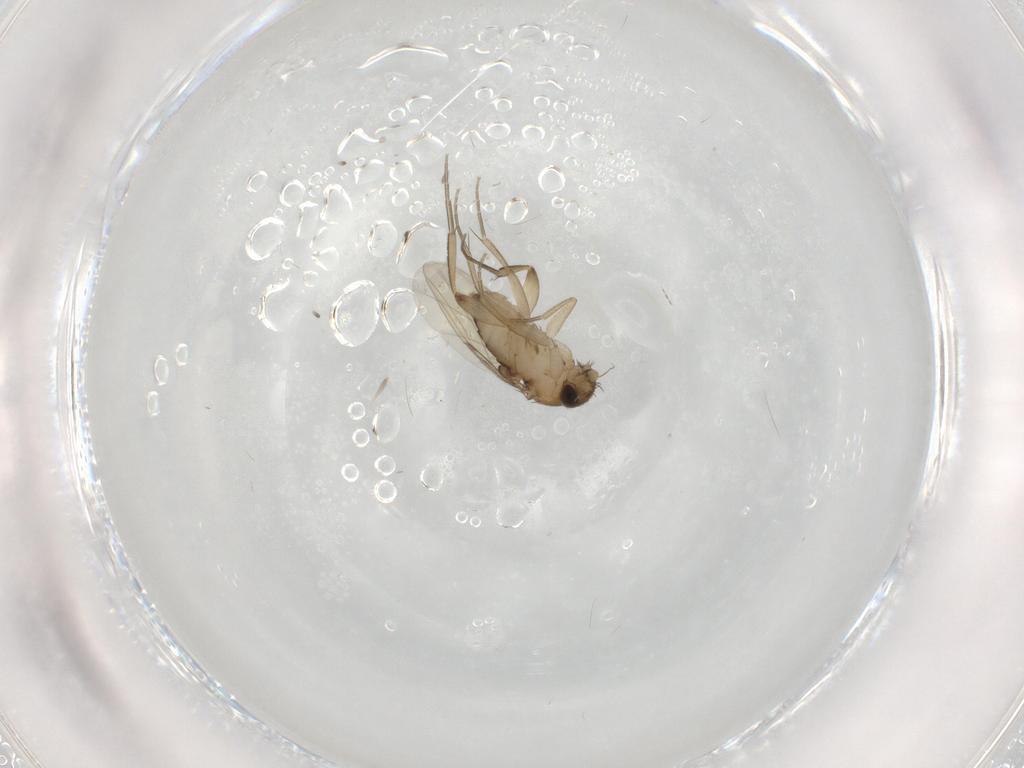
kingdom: Animalia
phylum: Arthropoda
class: Insecta
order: Diptera
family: Phoridae
